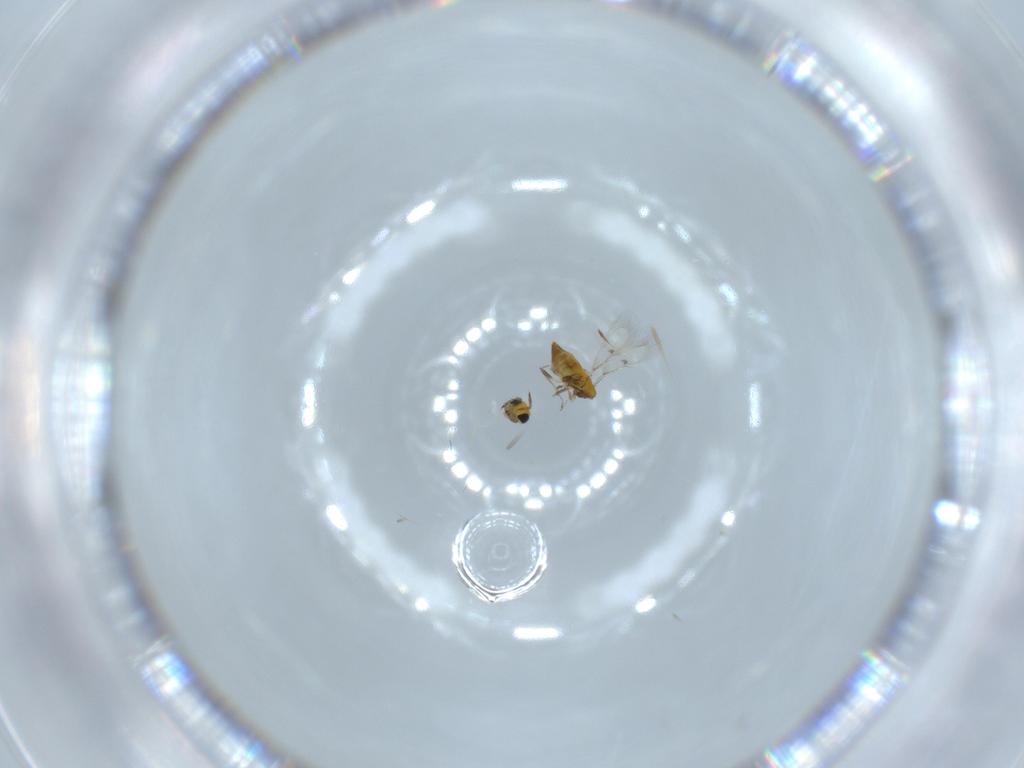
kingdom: Animalia
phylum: Arthropoda
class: Insecta
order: Hymenoptera
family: Trichogrammatidae
